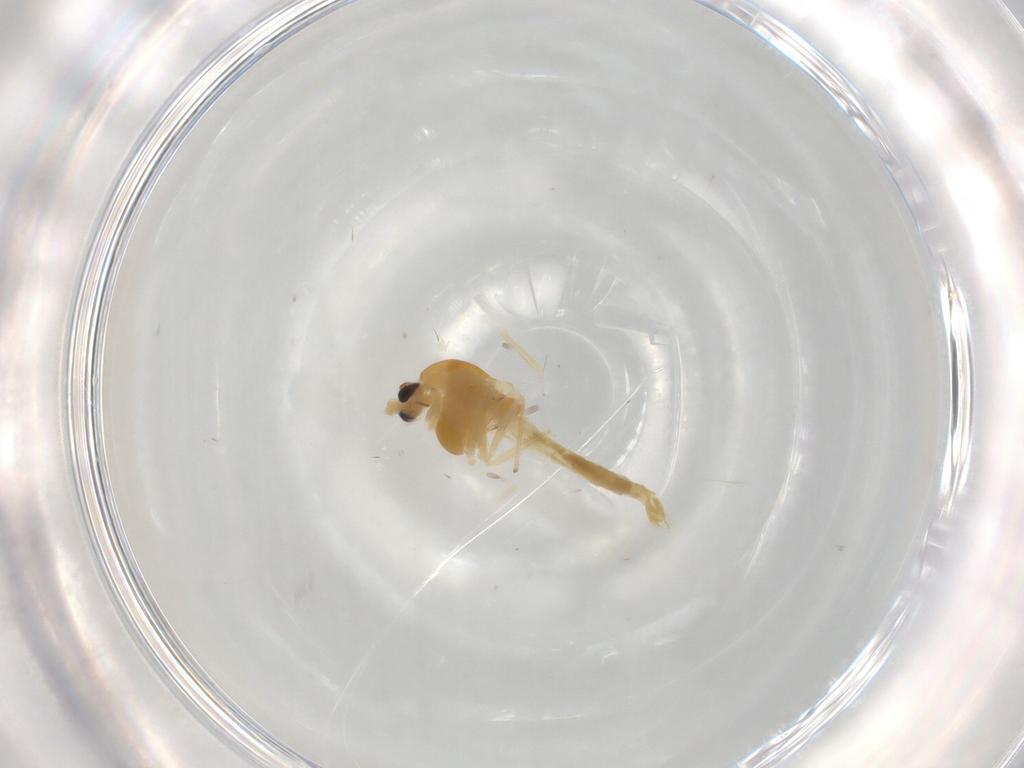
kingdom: Animalia
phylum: Arthropoda
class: Insecta
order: Diptera
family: Chironomidae
